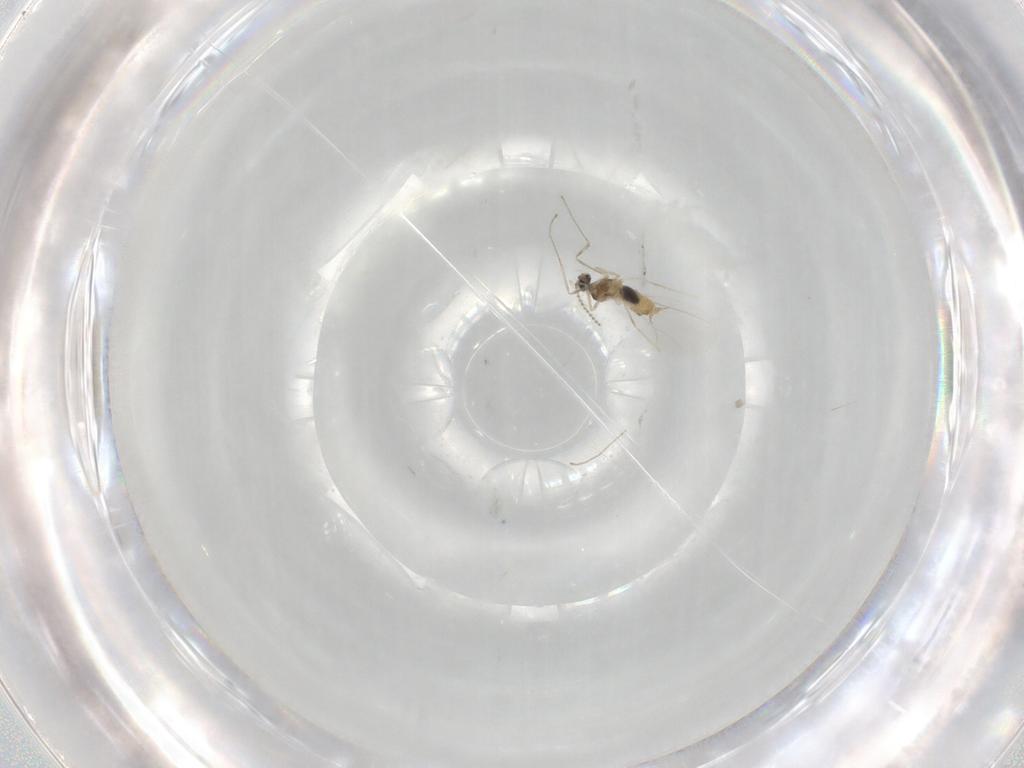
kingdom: Animalia
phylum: Arthropoda
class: Insecta
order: Diptera
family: Cecidomyiidae
